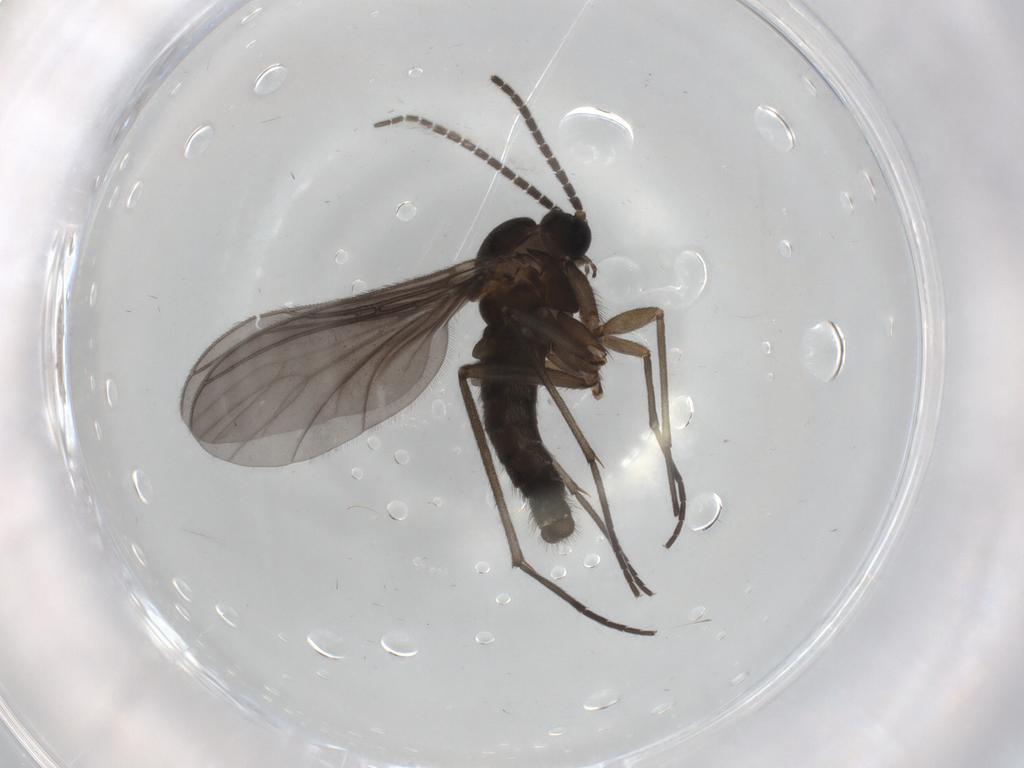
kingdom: Animalia
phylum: Arthropoda
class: Insecta
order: Diptera
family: Sciaridae
